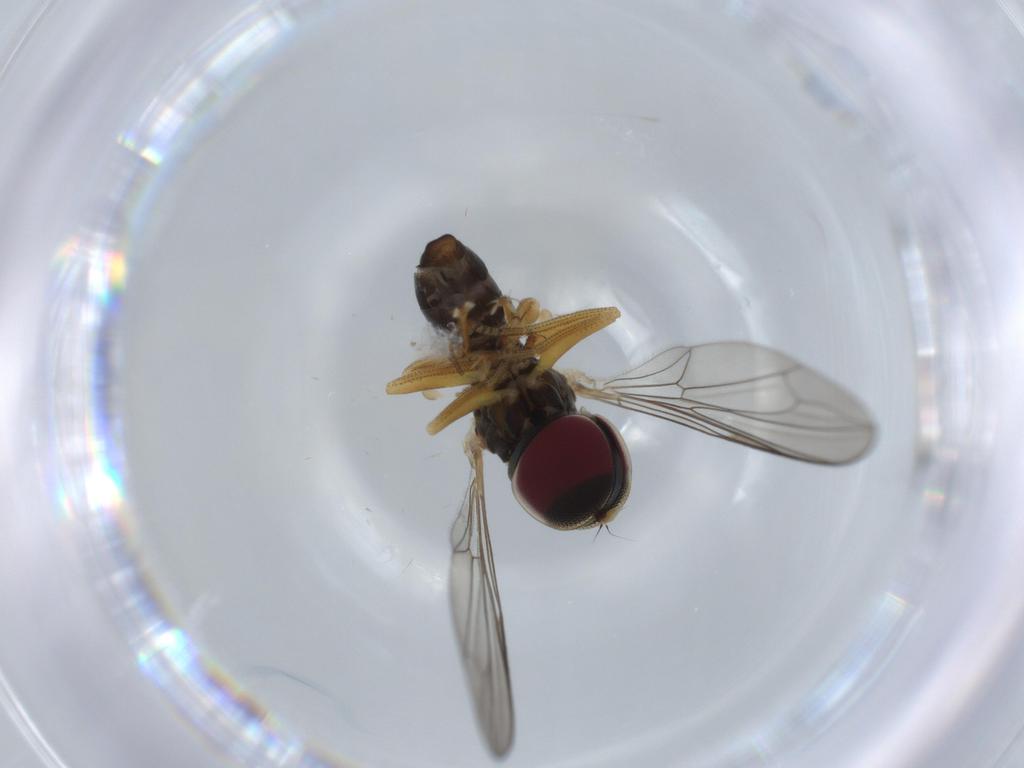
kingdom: Animalia
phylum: Arthropoda
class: Insecta
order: Diptera
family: Pipunculidae
